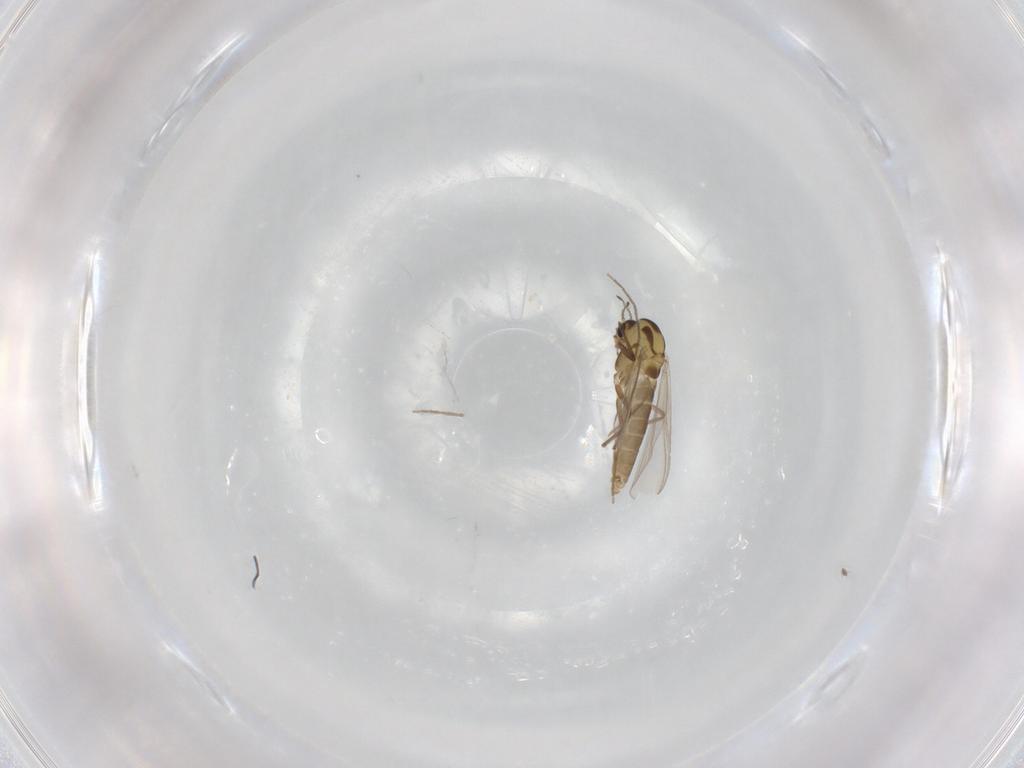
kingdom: Animalia
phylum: Arthropoda
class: Insecta
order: Diptera
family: Chironomidae
